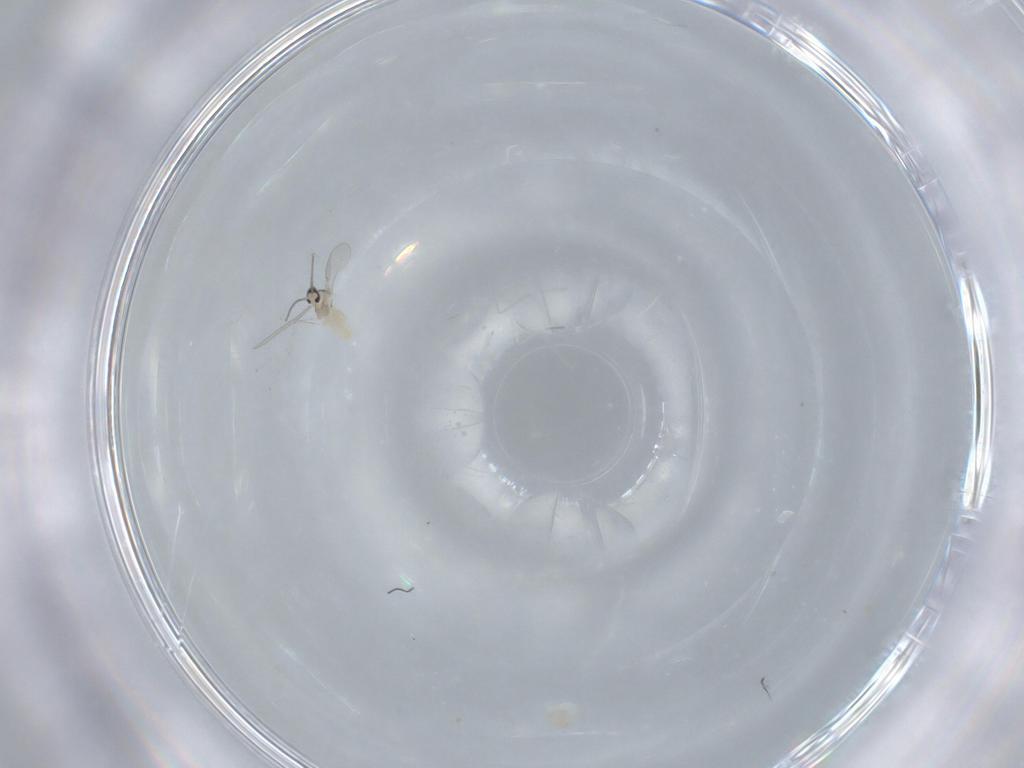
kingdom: Animalia
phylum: Arthropoda
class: Insecta
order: Diptera
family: Cecidomyiidae
